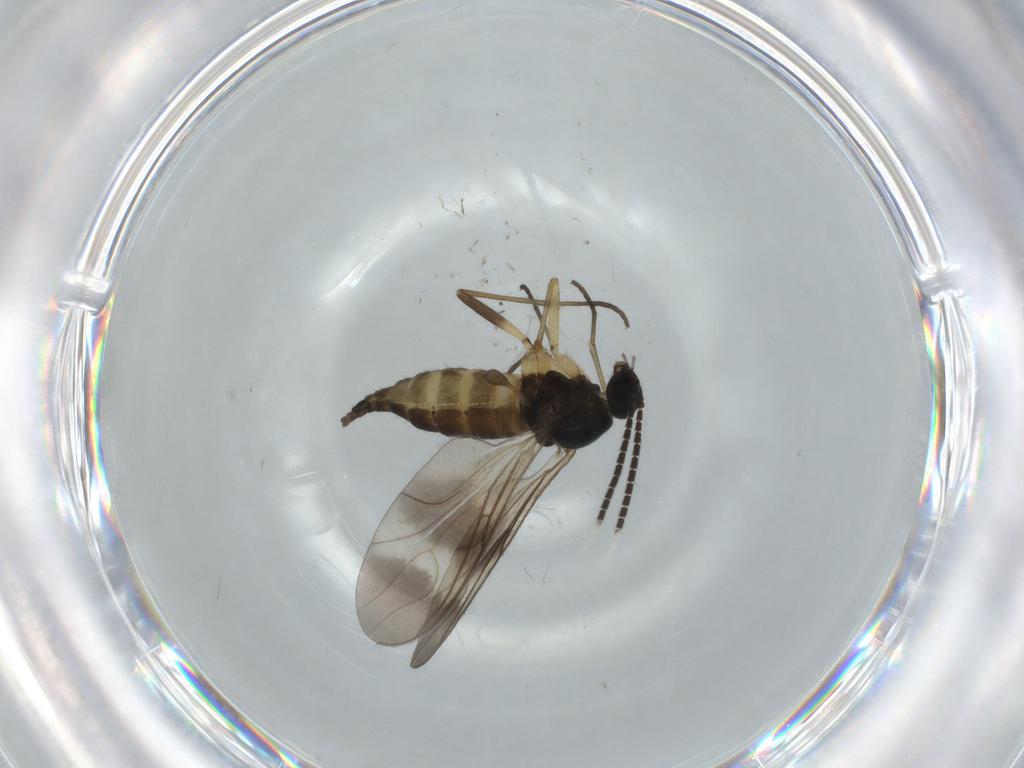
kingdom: Animalia
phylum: Arthropoda
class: Insecta
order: Diptera
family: Sciaridae
